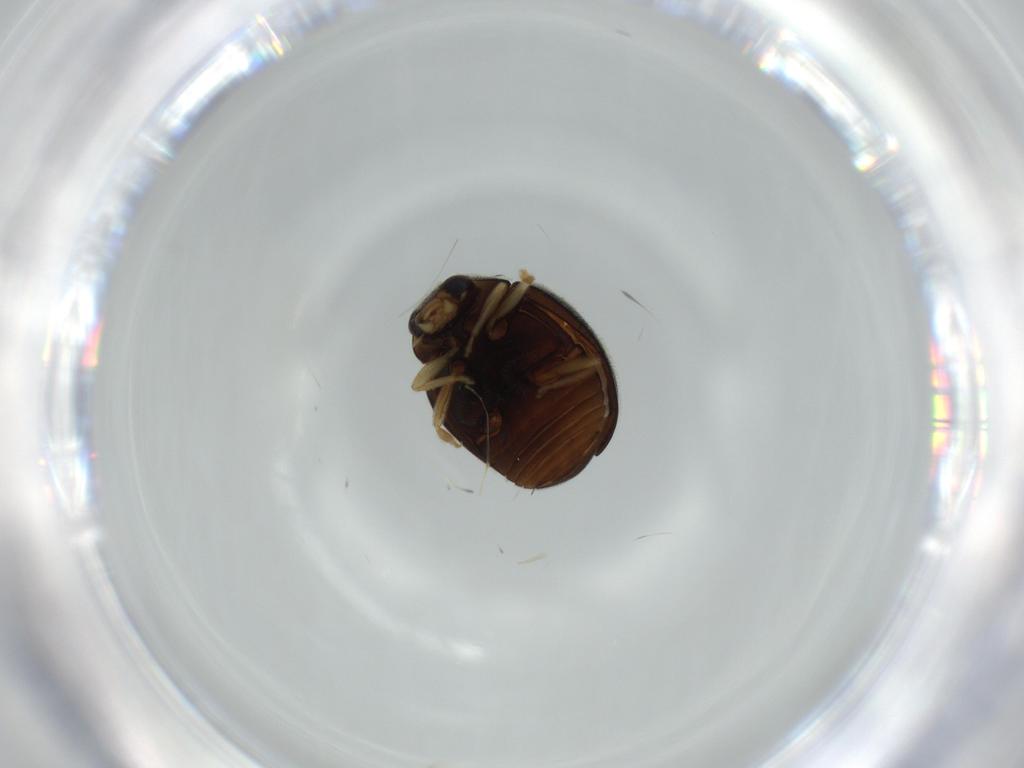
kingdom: Animalia
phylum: Arthropoda
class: Insecta
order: Coleoptera
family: Coccinellidae
